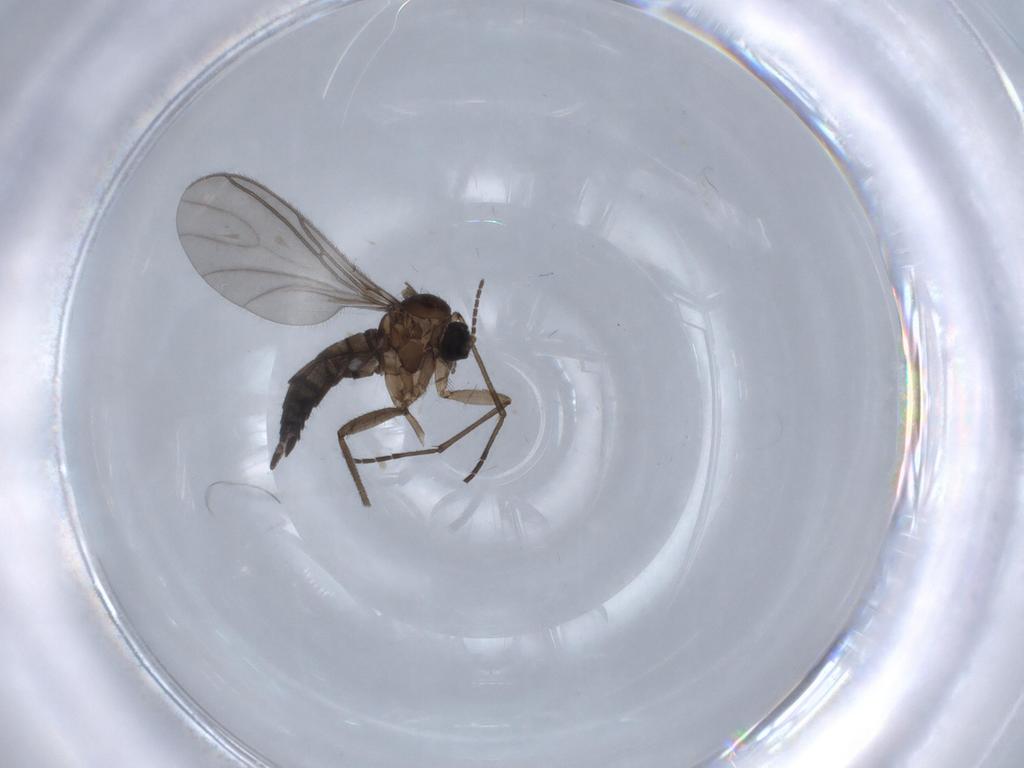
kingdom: Animalia
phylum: Arthropoda
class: Insecta
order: Diptera
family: Sciaridae
